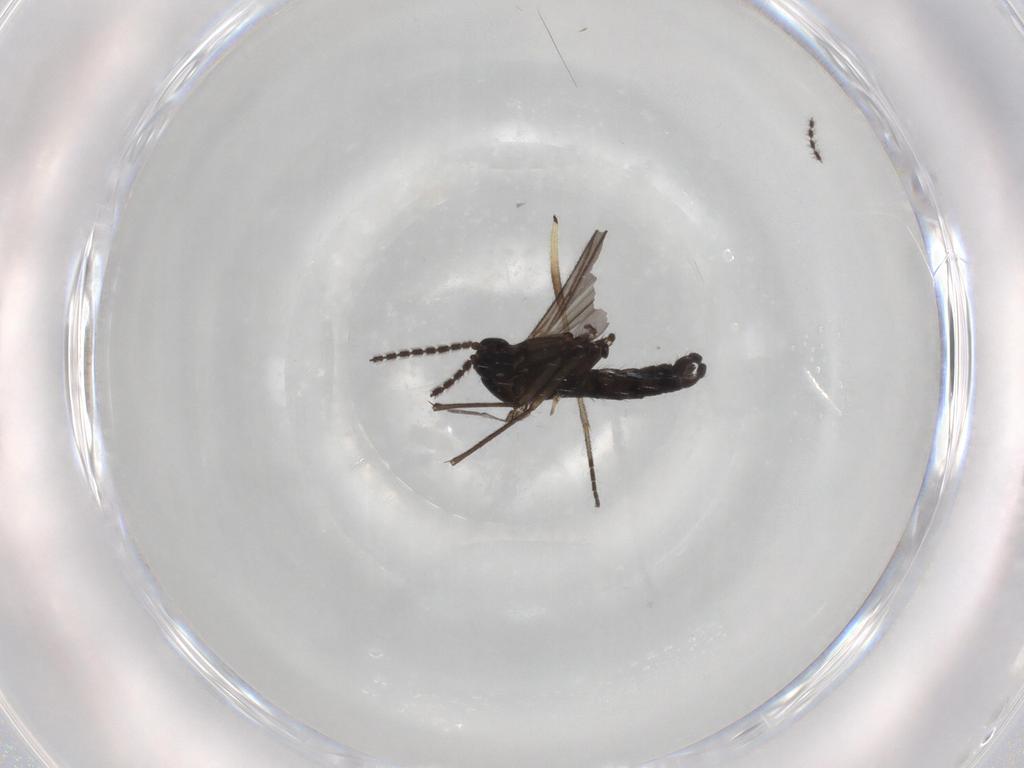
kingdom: Animalia
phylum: Arthropoda
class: Insecta
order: Diptera
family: Sciaridae
